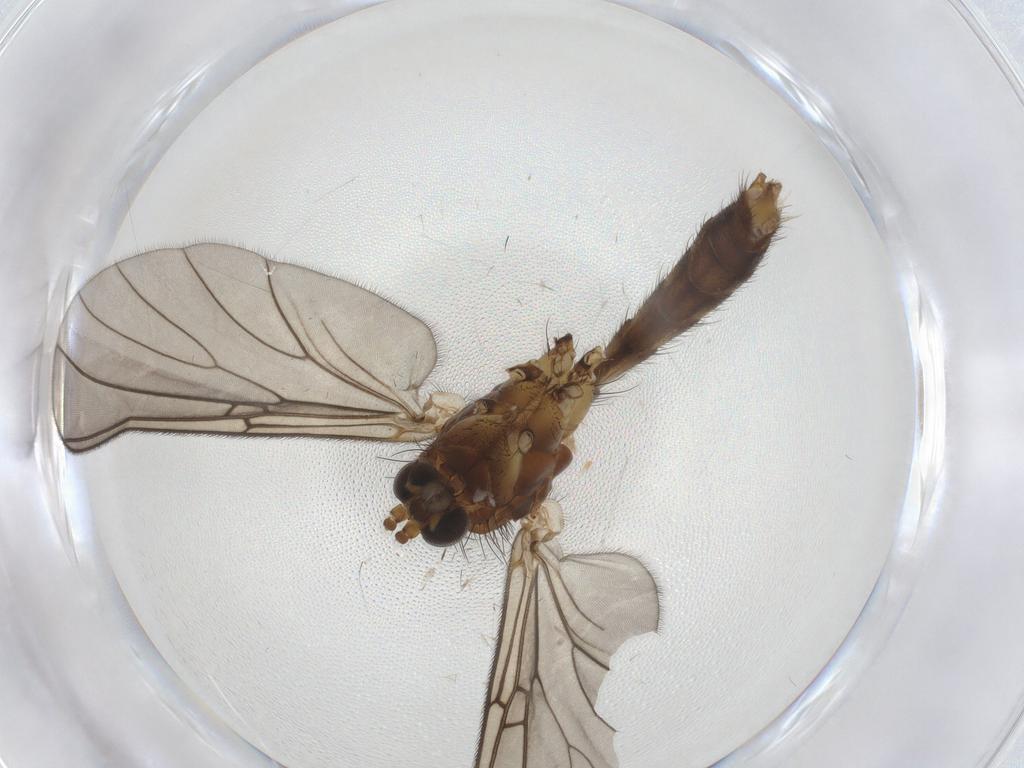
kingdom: Animalia
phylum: Arthropoda
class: Insecta
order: Diptera
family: Mycetophilidae
